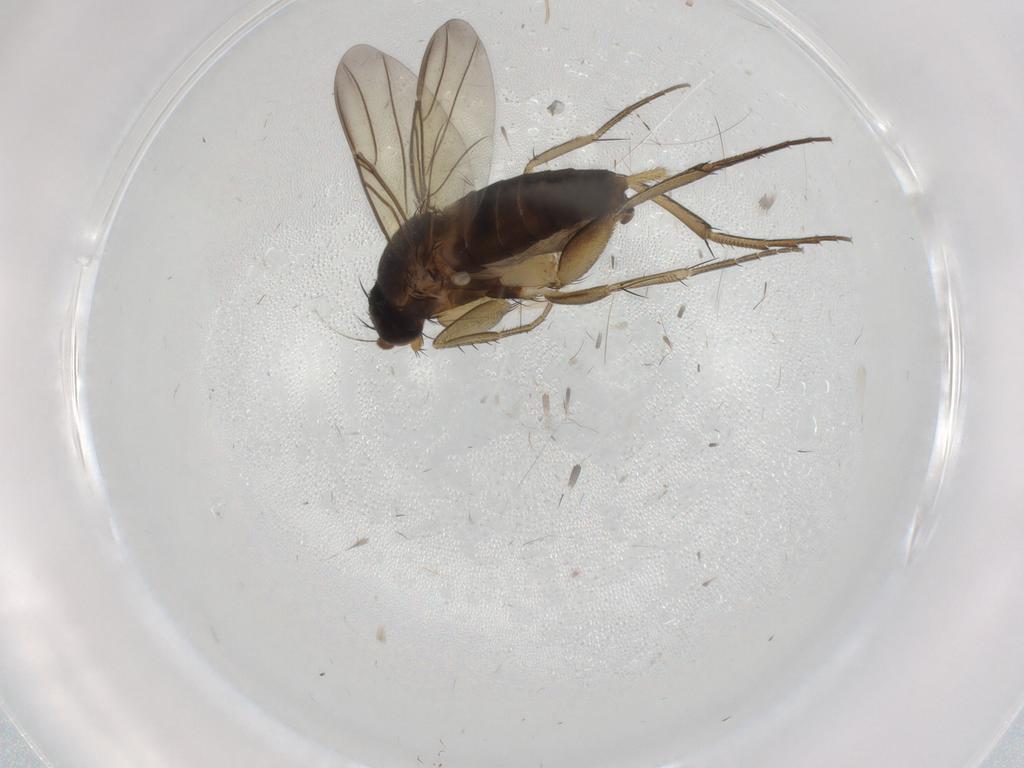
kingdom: Animalia
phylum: Arthropoda
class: Insecta
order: Diptera
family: Phoridae
